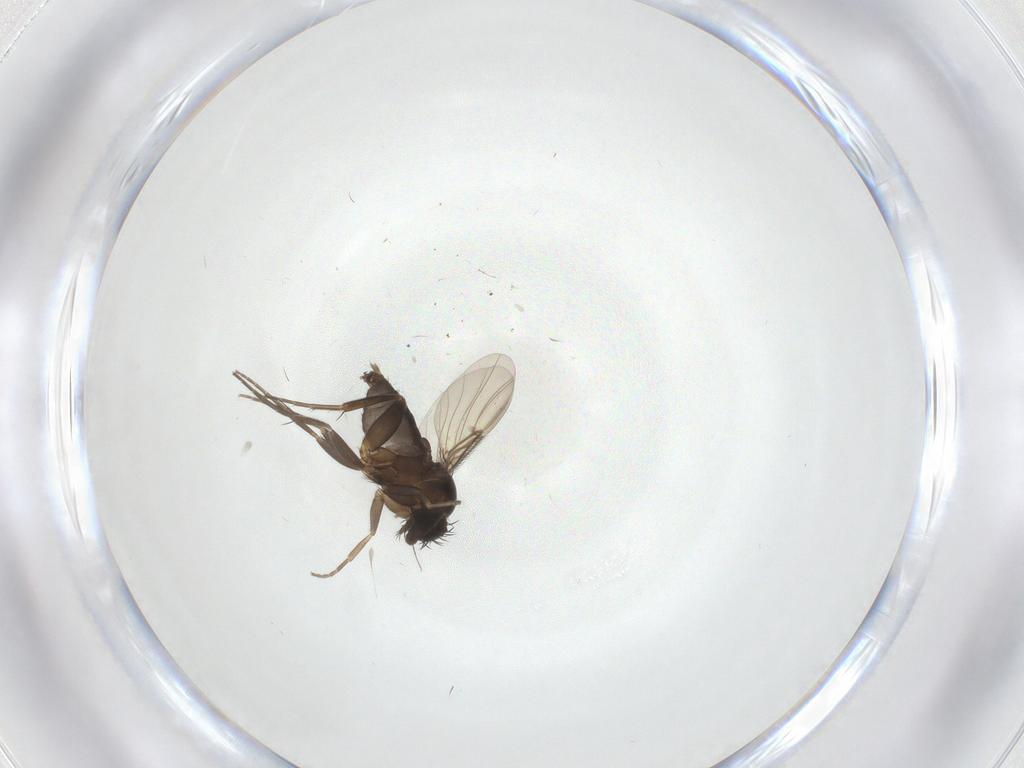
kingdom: Animalia
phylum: Arthropoda
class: Insecta
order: Diptera
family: Phoridae
